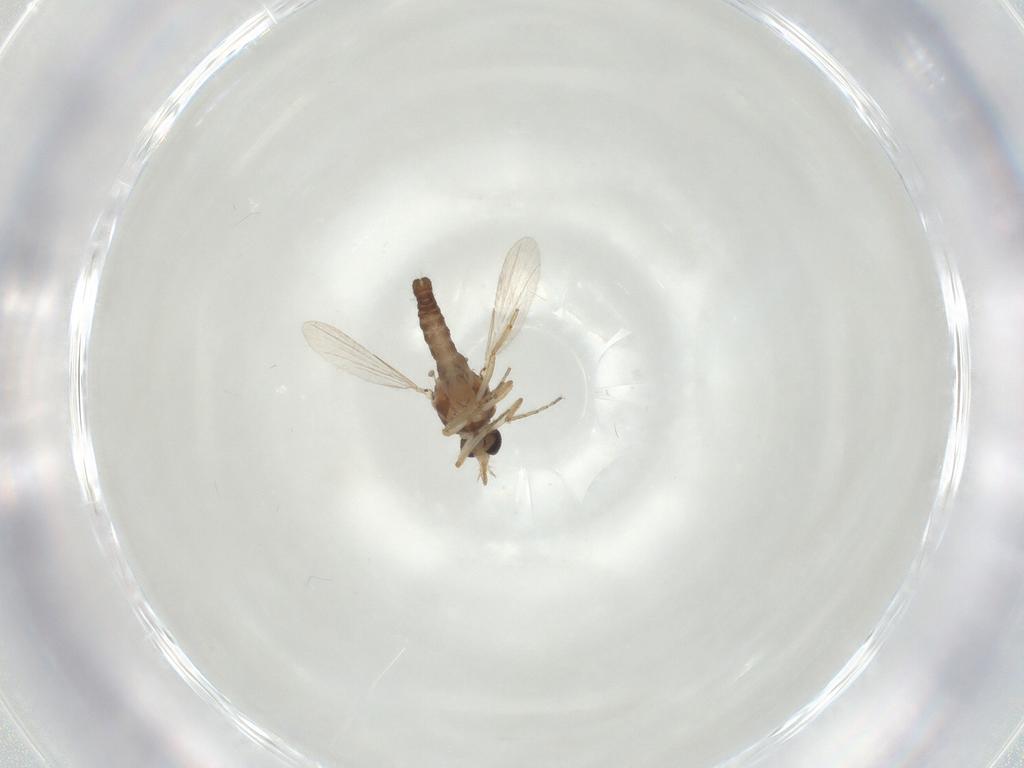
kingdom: Animalia
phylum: Arthropoda
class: Insecta
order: Diptera
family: Ceratopogonidae
